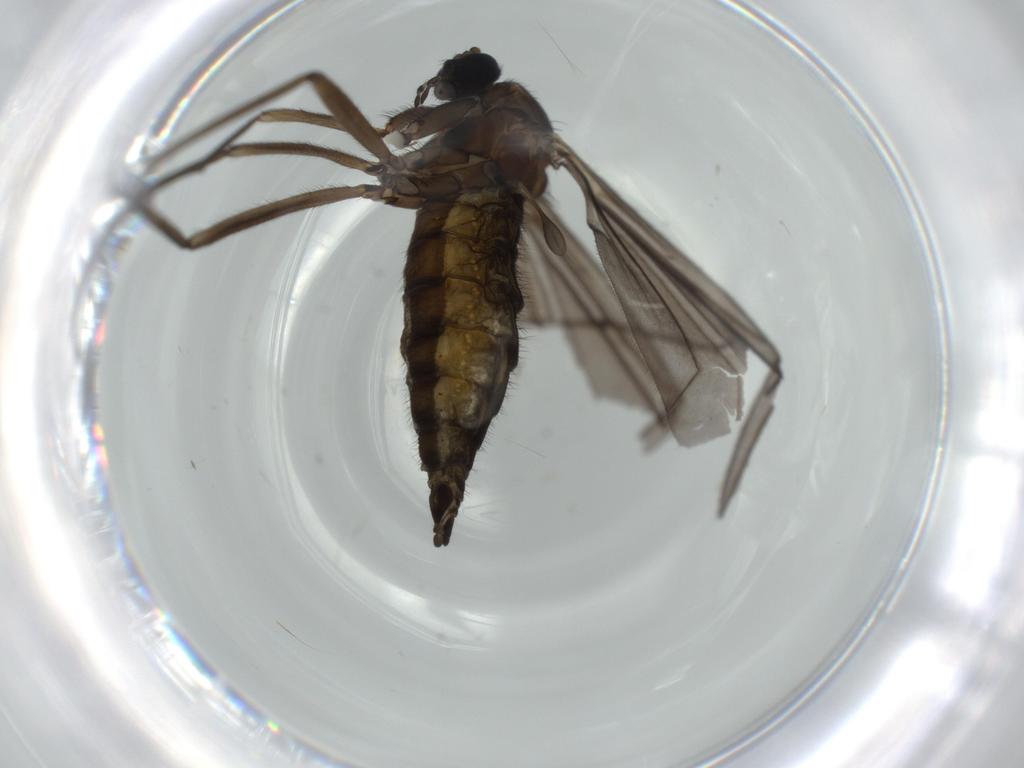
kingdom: Animalia
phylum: Arthropoda
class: Insecta
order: Diptera
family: Sciaridae
